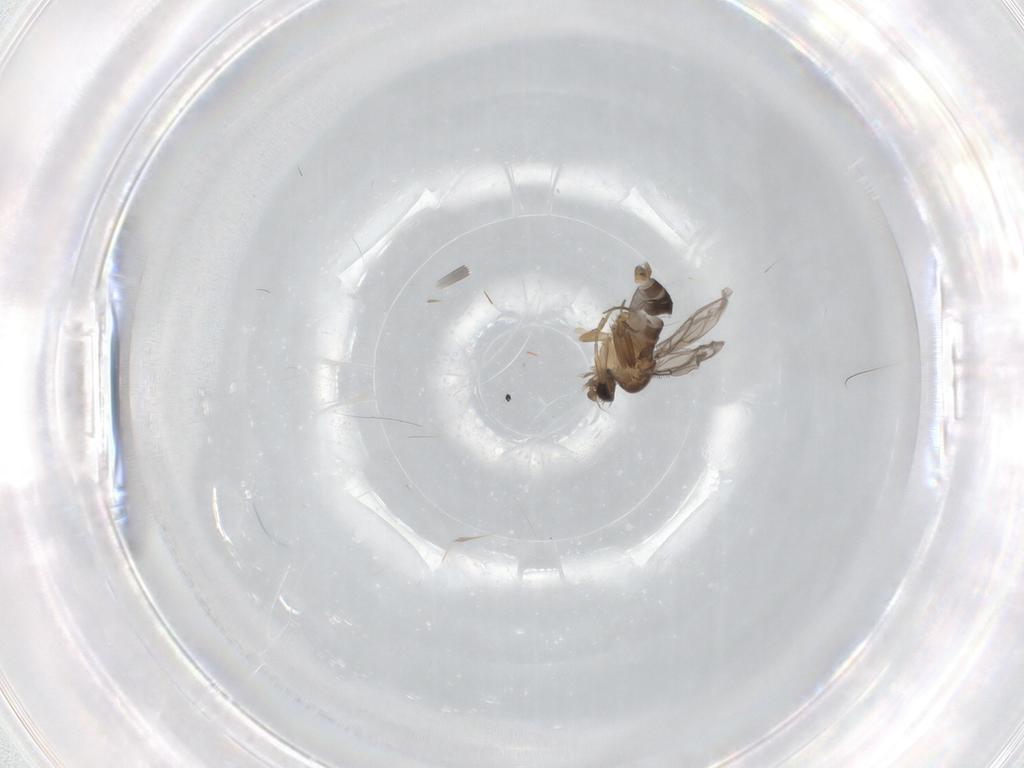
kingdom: Animalia
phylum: Arthropoda
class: Insecta
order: Diptera
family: Phoridae
